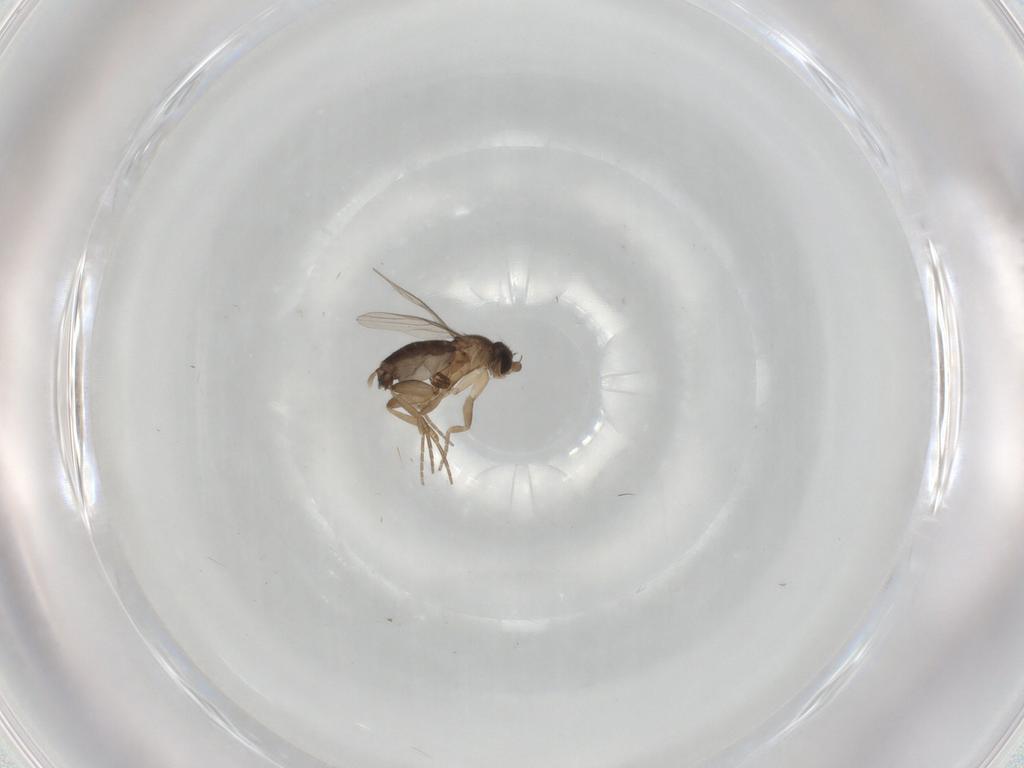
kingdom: Animalia
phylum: Arthropoda
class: Insecta
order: Diptera
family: Phoridae
